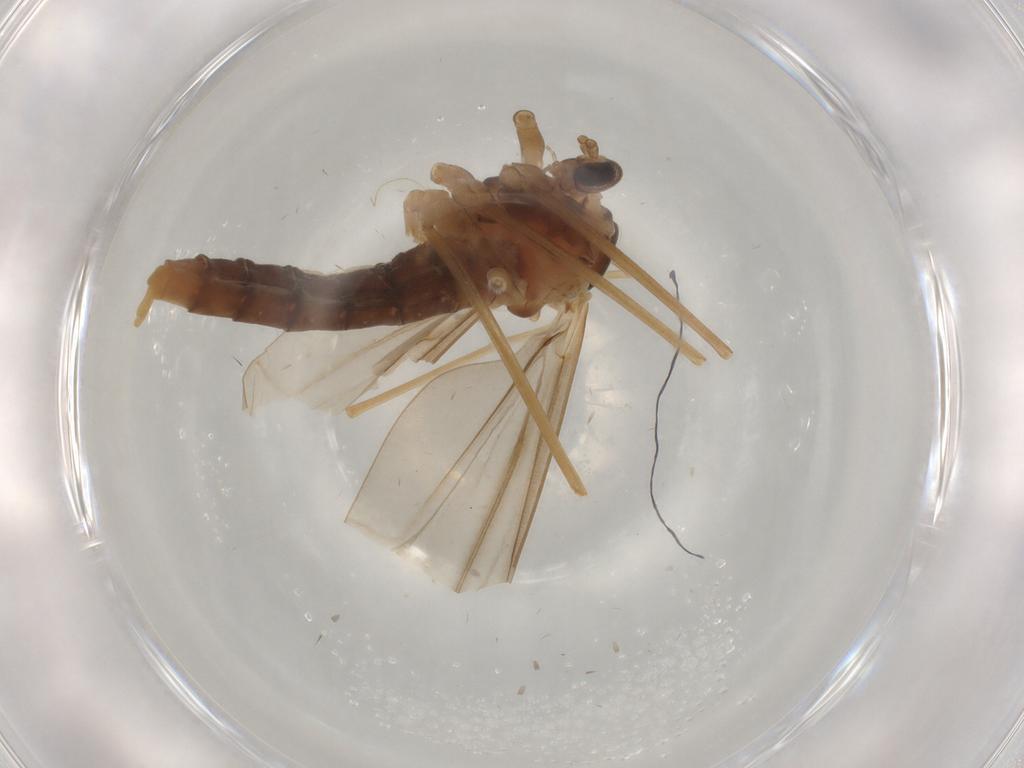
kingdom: Animalia
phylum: Arthropoda
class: Insecta
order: Diptera
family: Cecidomyiidae
